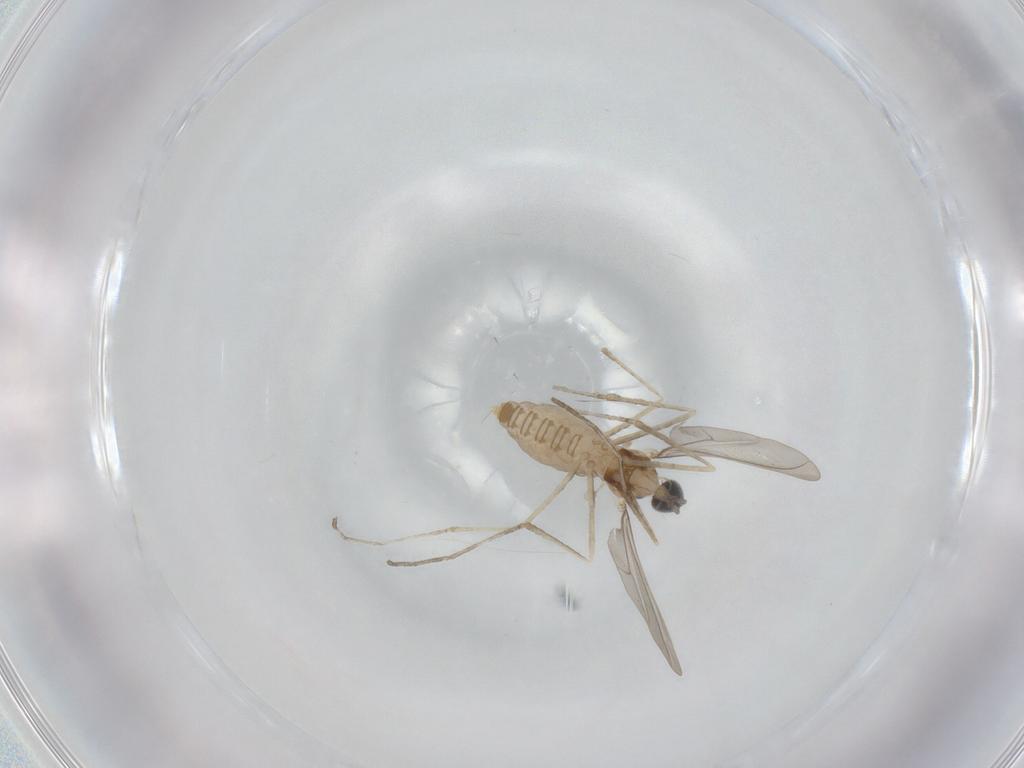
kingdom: Animalia
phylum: Arthropoda
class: Insecta
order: Diptera
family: Cecidomyiidae
